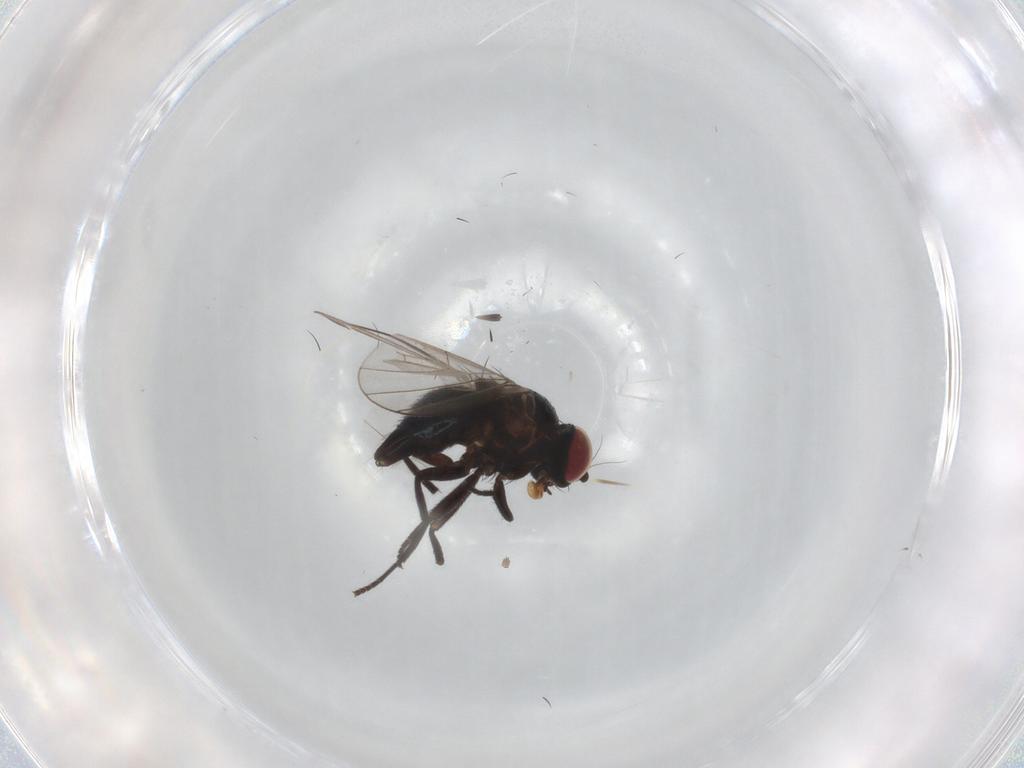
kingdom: Animalia
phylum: Arthropoda
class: Insecta
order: Diptera
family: Agromyzidae
